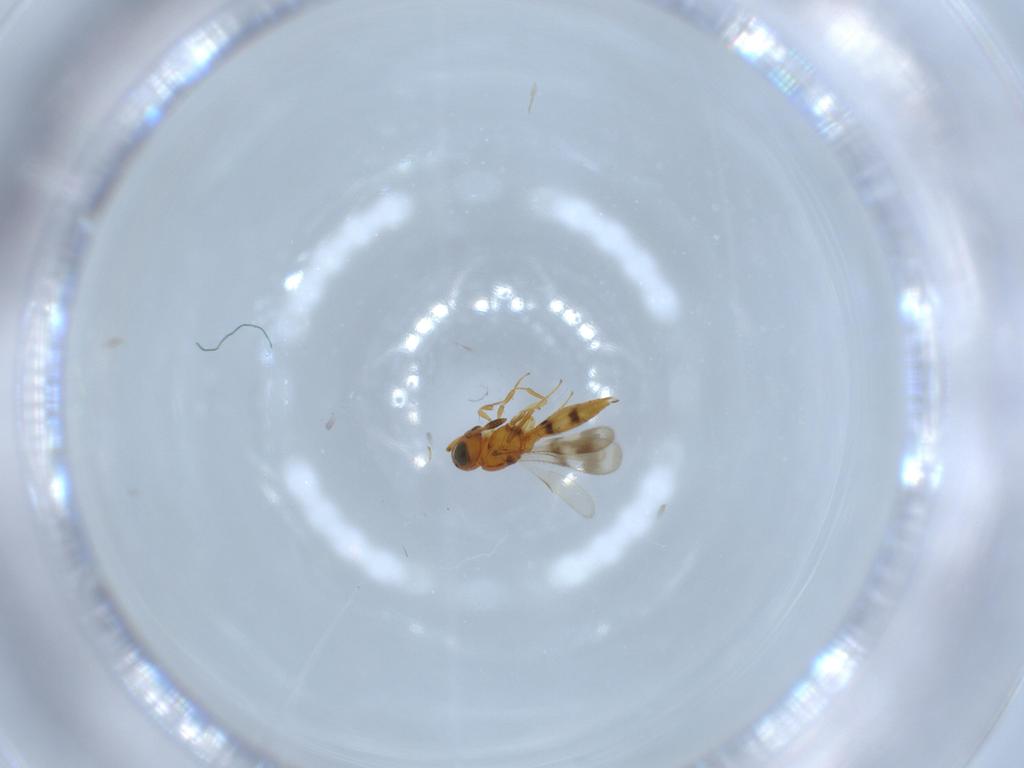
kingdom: Animalia
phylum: Arthropoda
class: Insecta
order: Hymenoptera
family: Scelionidae
